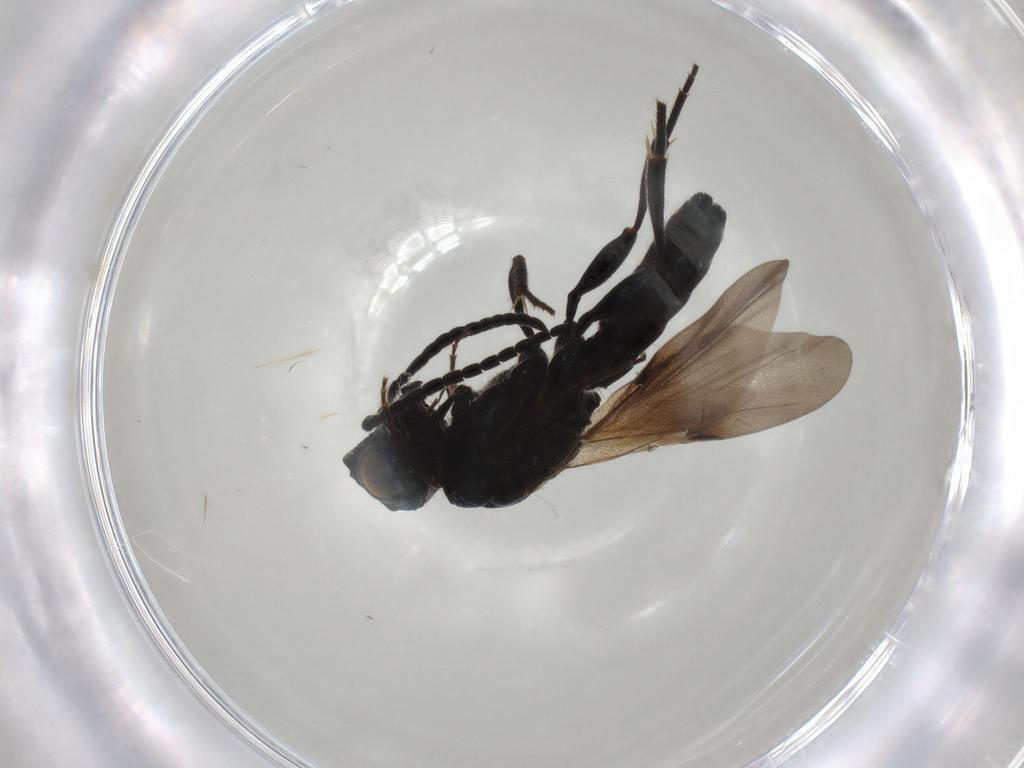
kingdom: Animalia
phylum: Arthropoda
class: Insecta
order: Hymenoptera
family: Sparasionidae
